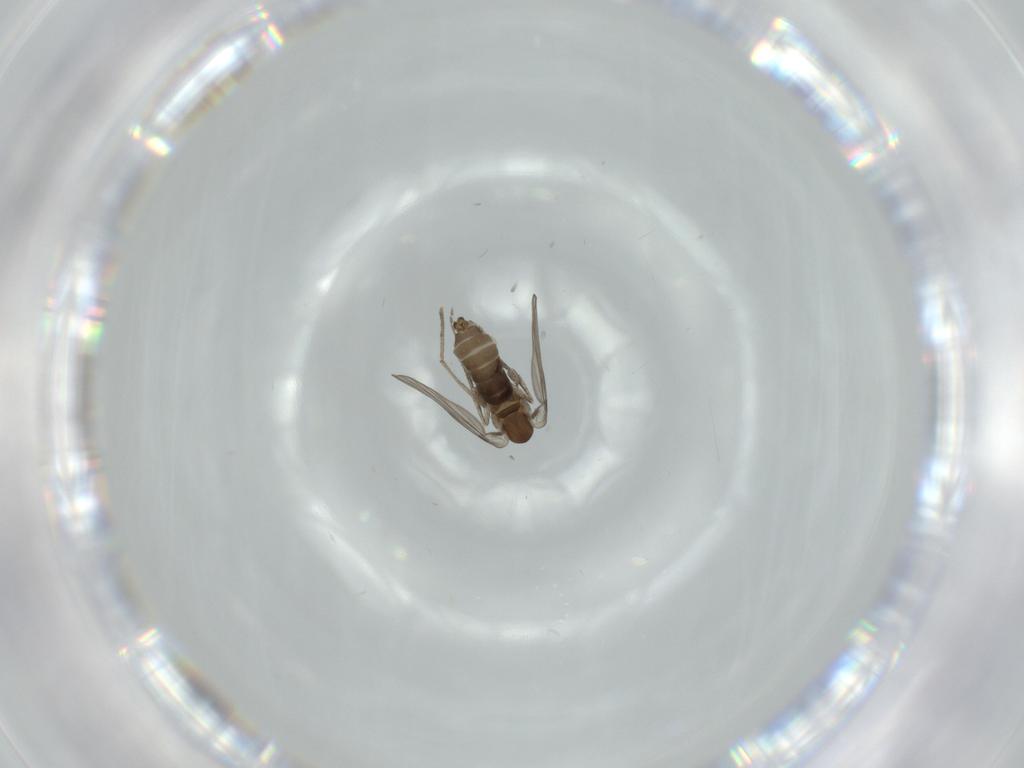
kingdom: Animalia
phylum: Arthropoda
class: Insecta
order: Diptera
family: Psychodidae
